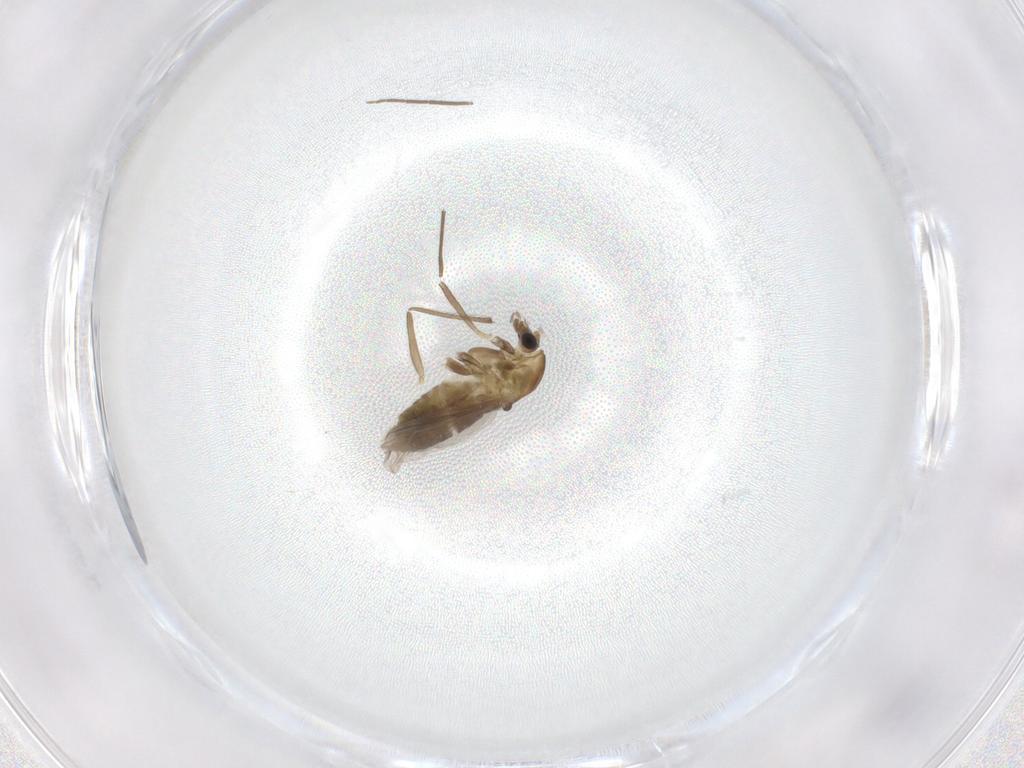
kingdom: Animalia
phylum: Arthropoda
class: Insecta
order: Diptera
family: Chironomidae
